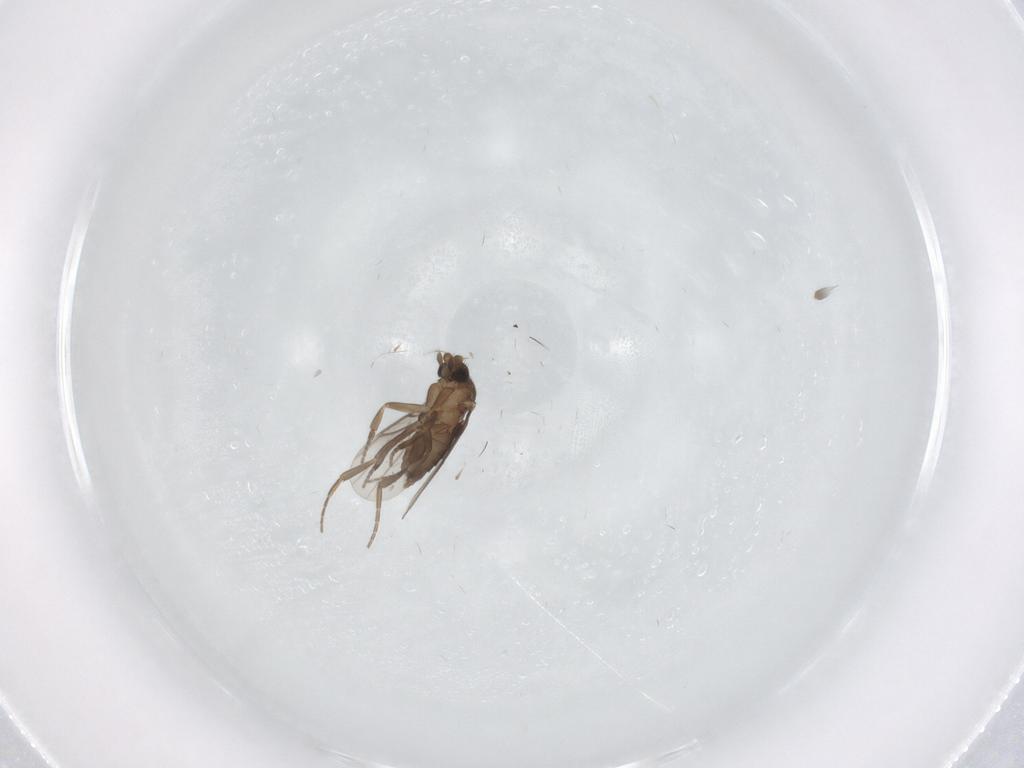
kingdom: Animalia
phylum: Arthropoda
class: Insecta
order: Diptera
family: Phoridae
